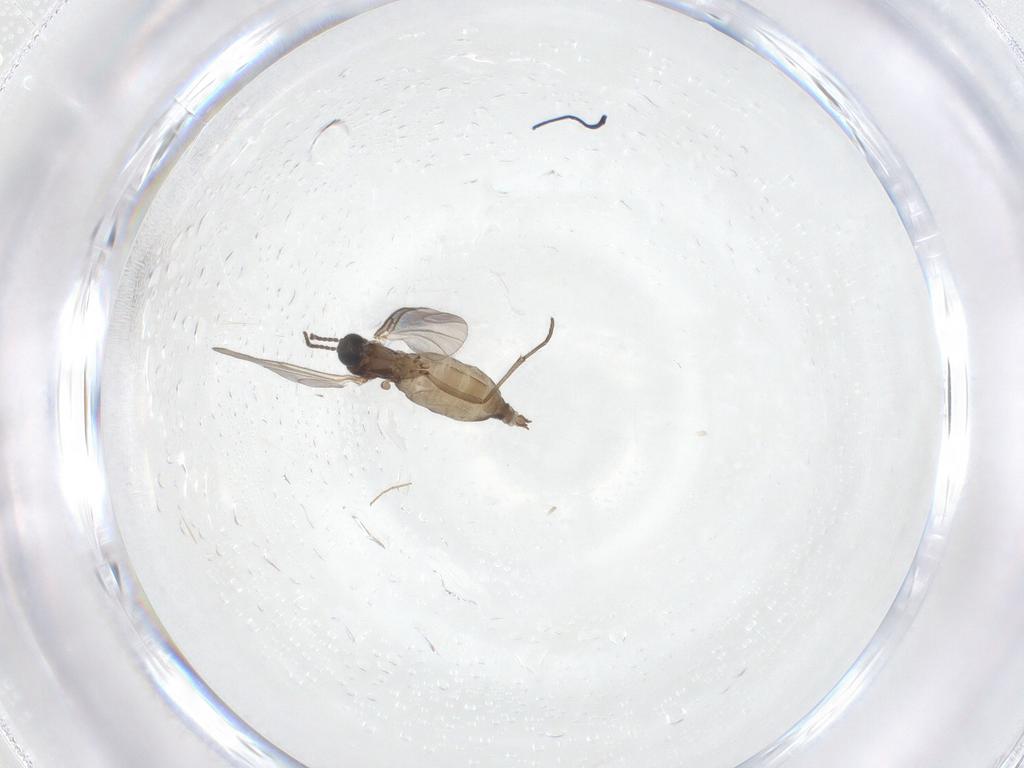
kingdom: Animalia
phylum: Arthropoda
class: Insecta
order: Diptera
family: Sciaridae
